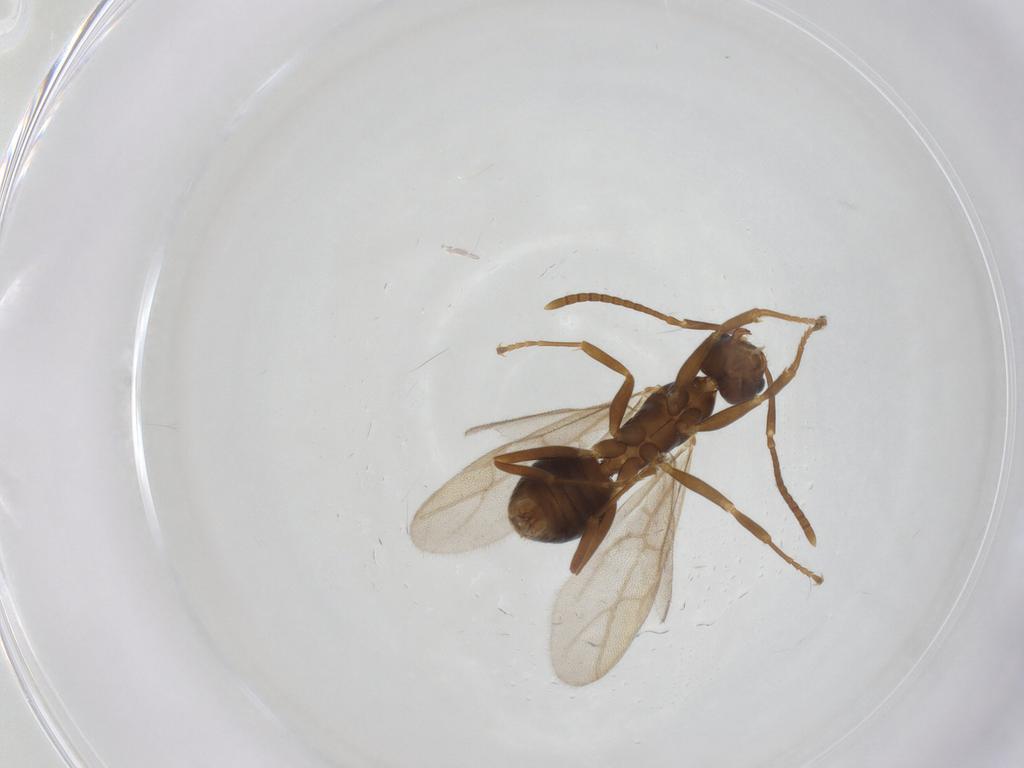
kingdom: Animalia
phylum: Arthropoda
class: Insecta
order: Hymenoptera
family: Formicidae
